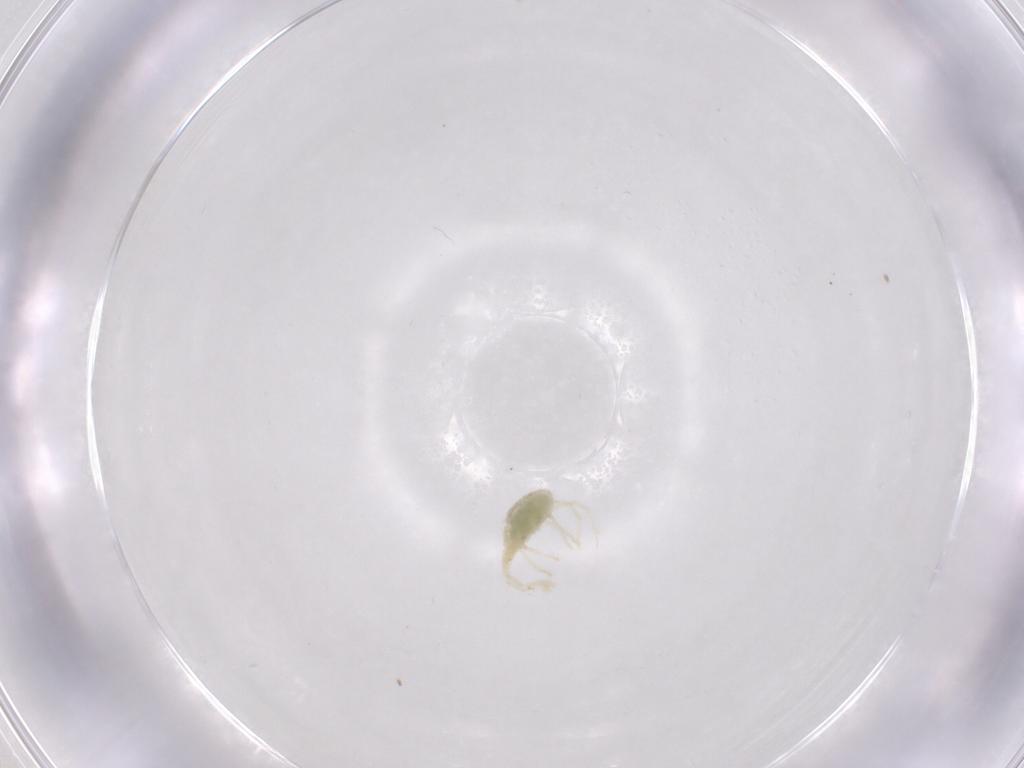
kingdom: Animalia
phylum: Arthropoda
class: Arachnida
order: Trombidiformes
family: Erythraeidae
